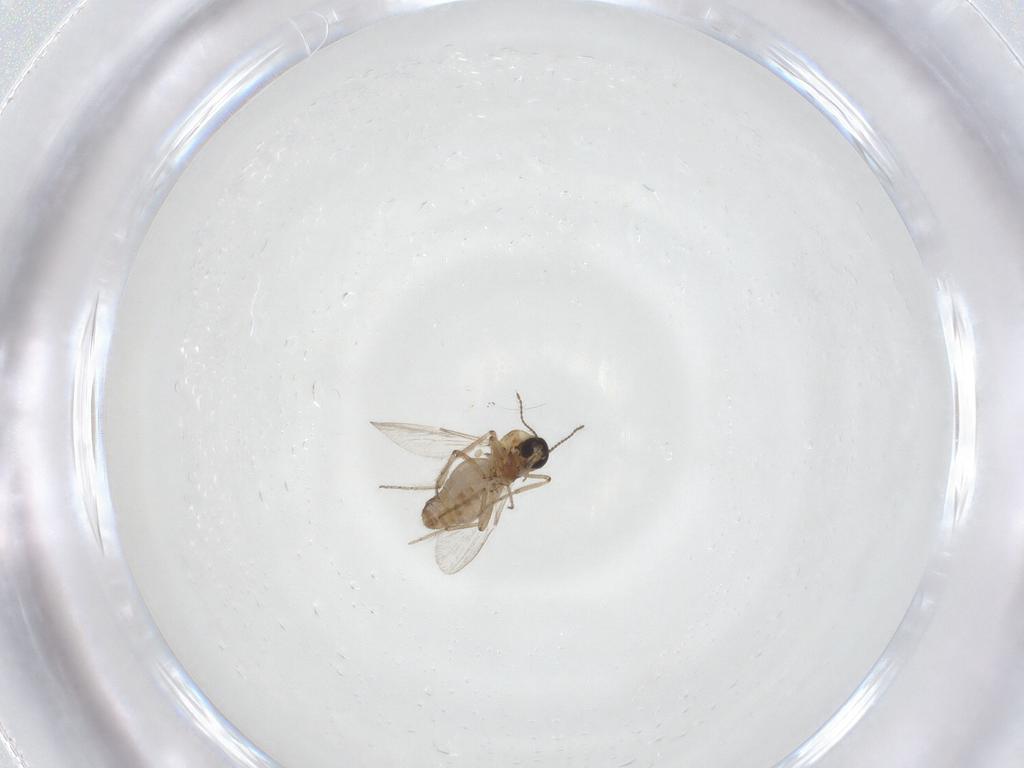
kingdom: Animalia
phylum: Arthropoda
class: Insecta
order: Diptera
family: Ceratopogonidae
